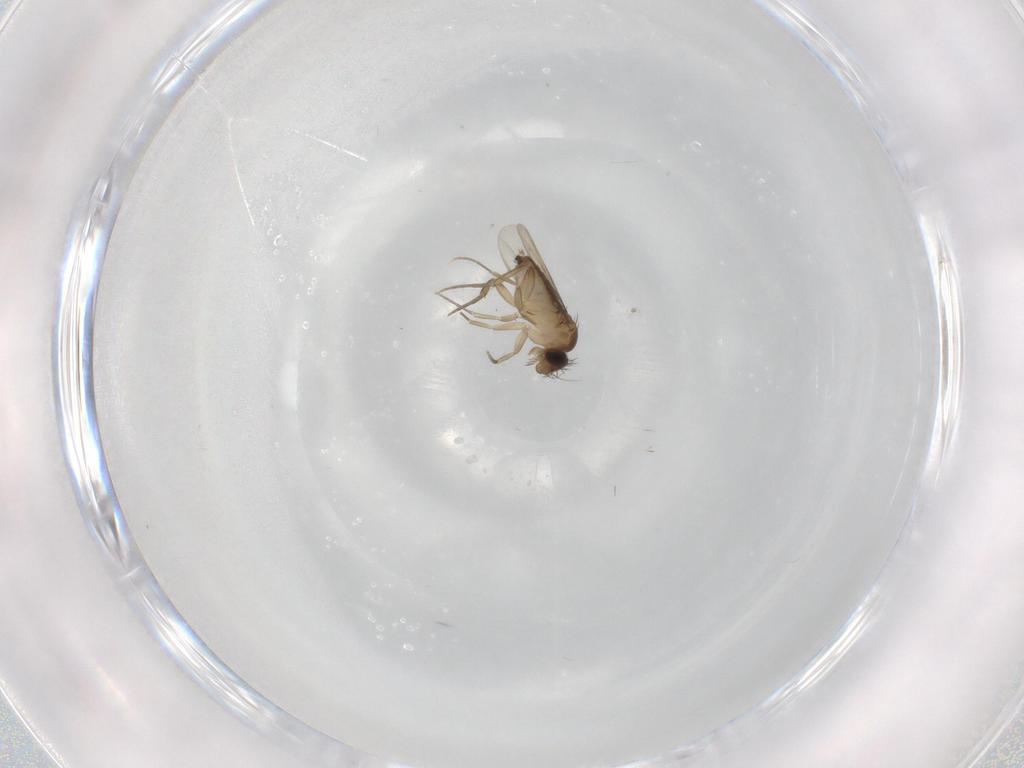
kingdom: Animalia
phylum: Arthropoda
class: Insecta
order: Diptera
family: Phoridae
